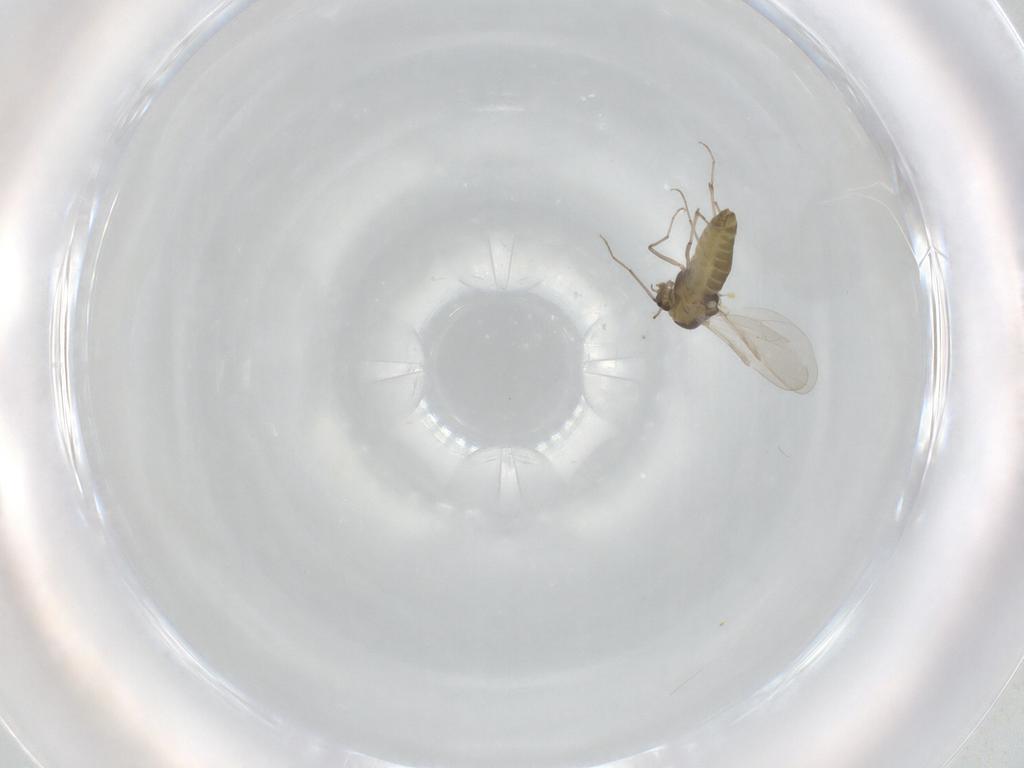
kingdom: Animalia
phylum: Arthropoda
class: Insecta
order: Diptera
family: Chironomidae
